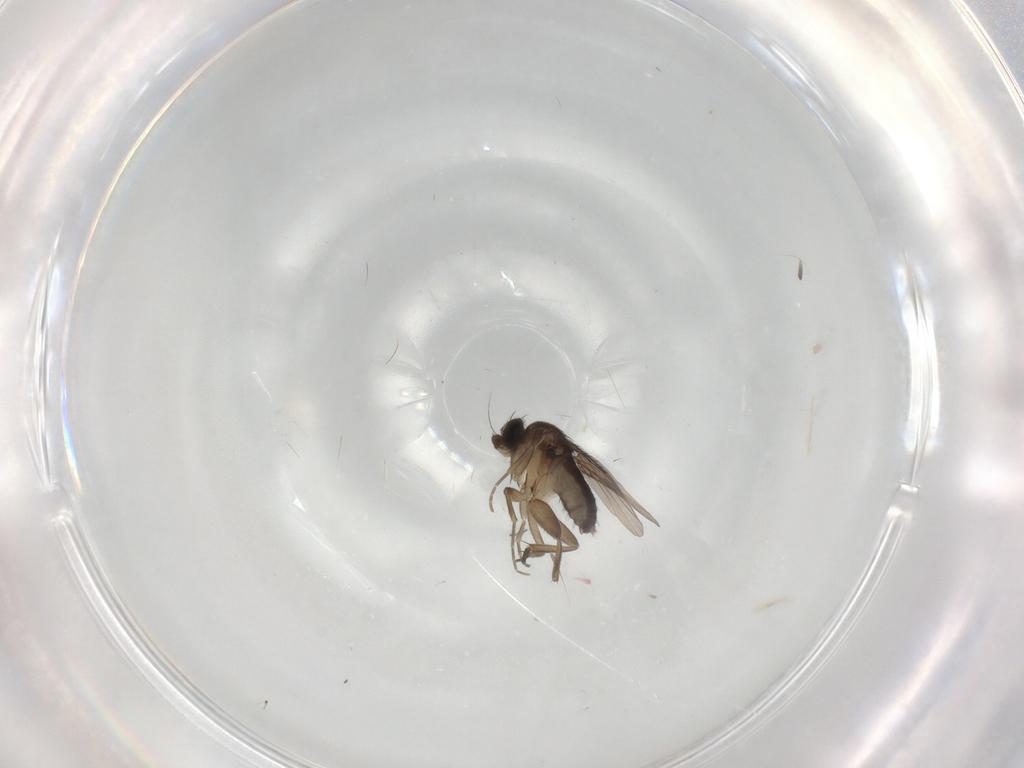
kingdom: Animalia
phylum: Arthropoda
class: Insecta
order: Diptera
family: Phoridae
